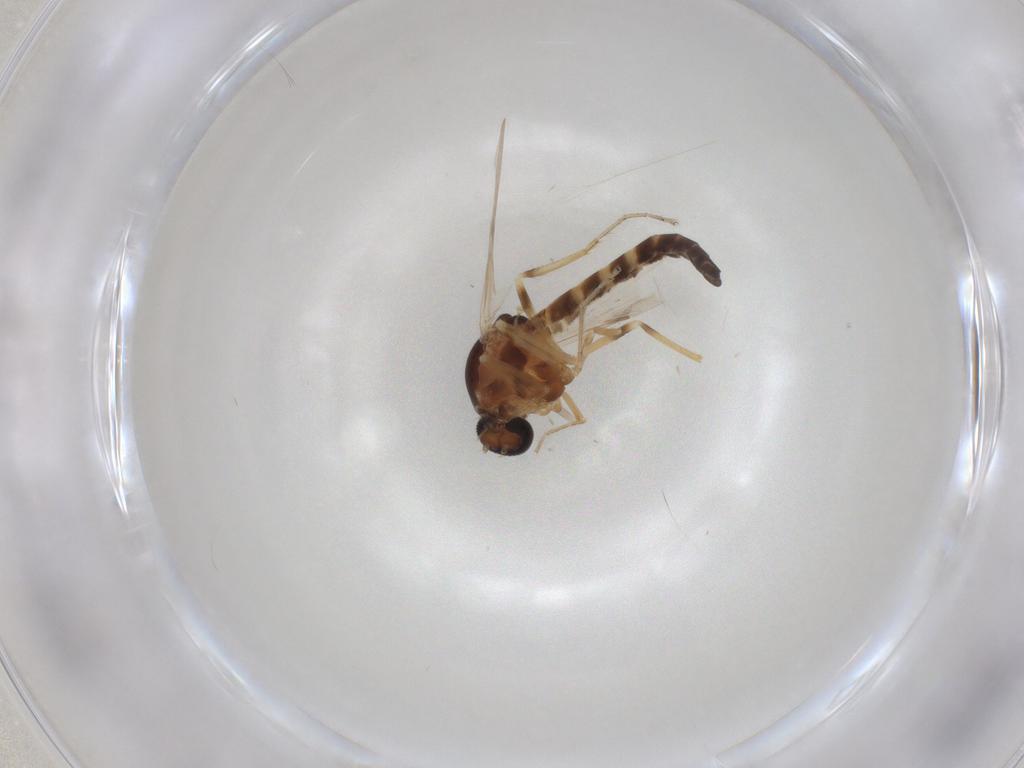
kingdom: Animalia
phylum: Arthropoda
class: Insecta
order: Diptera
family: Ceratopogonidae
